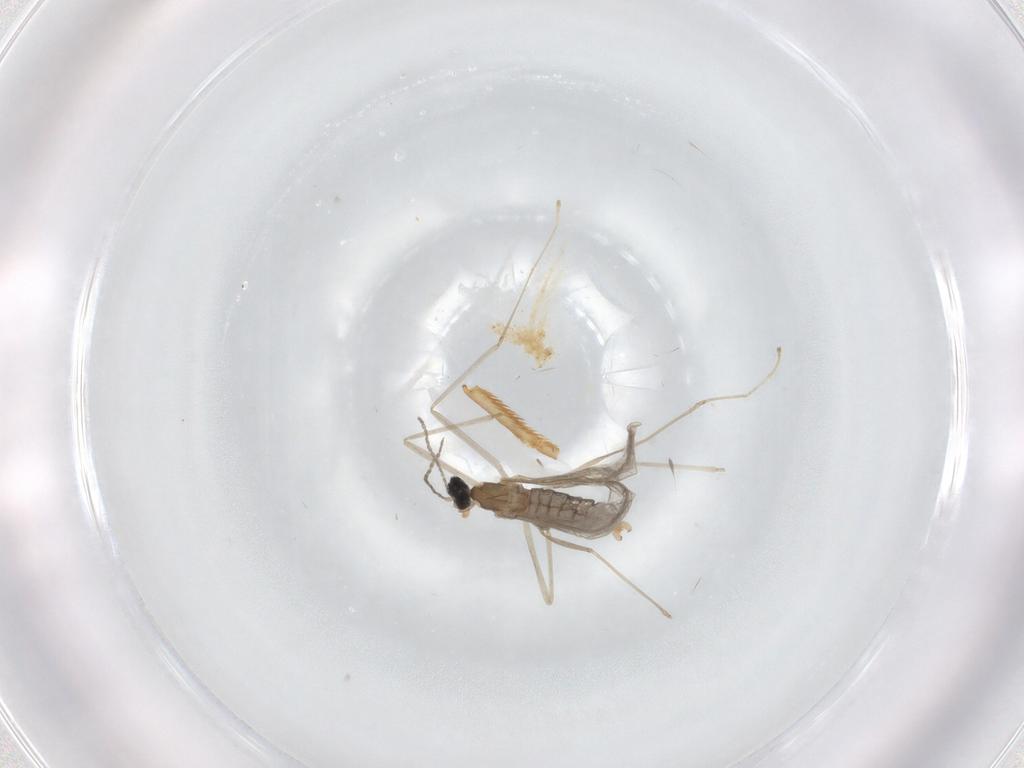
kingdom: Animalia
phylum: Arthropoda
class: Insecta
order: Diptera
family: Cecidomyiidae
